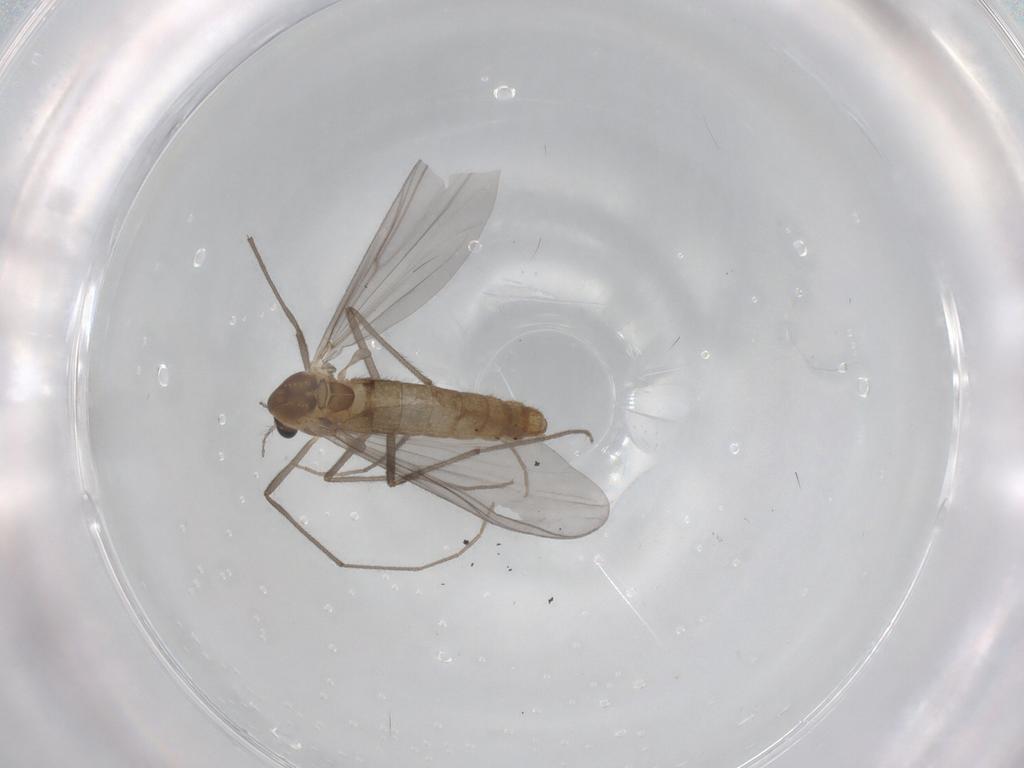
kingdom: Animalia
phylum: Arthropoda
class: Insecta
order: Diptera
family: Chironomidae
